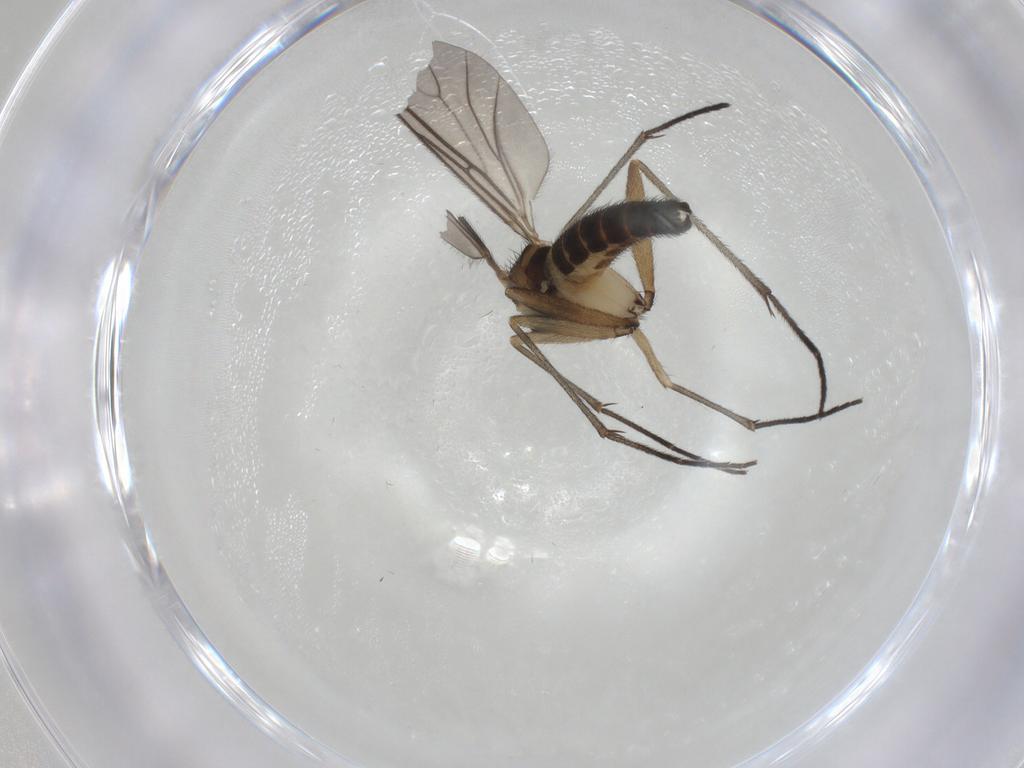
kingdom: Animalia
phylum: Arthropoda
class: Insecta
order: Diptera
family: Sciaridae
